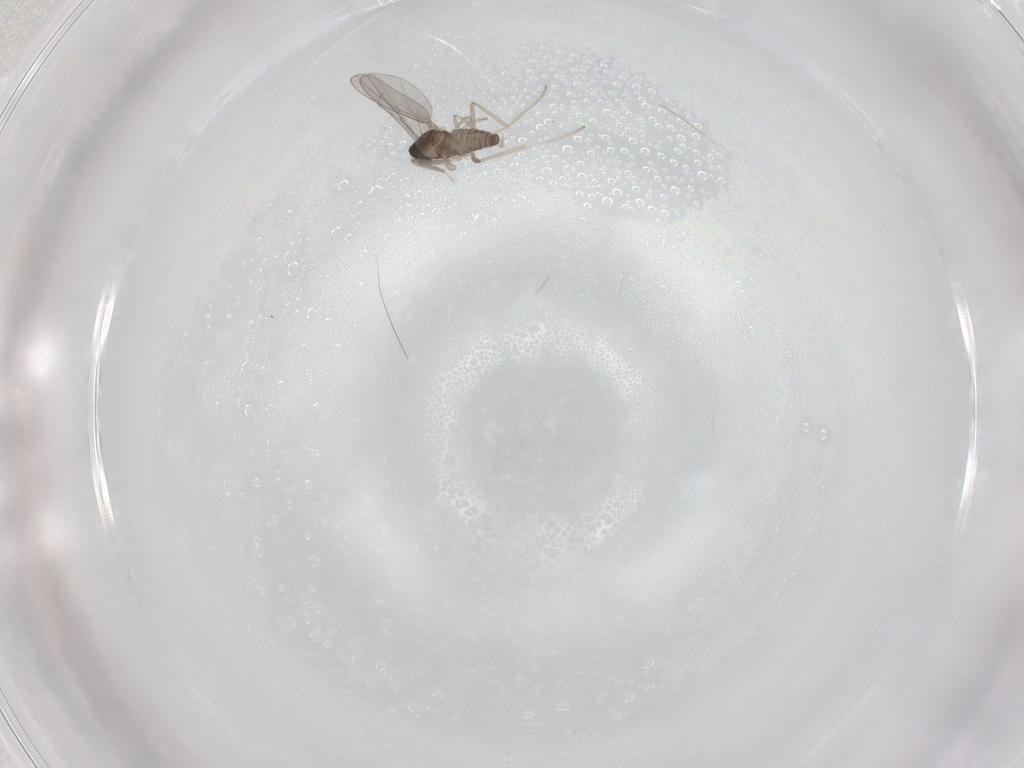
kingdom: Animalia
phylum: Arthropoda
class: Insecta
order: Diptera
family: Cecidomyiidae
